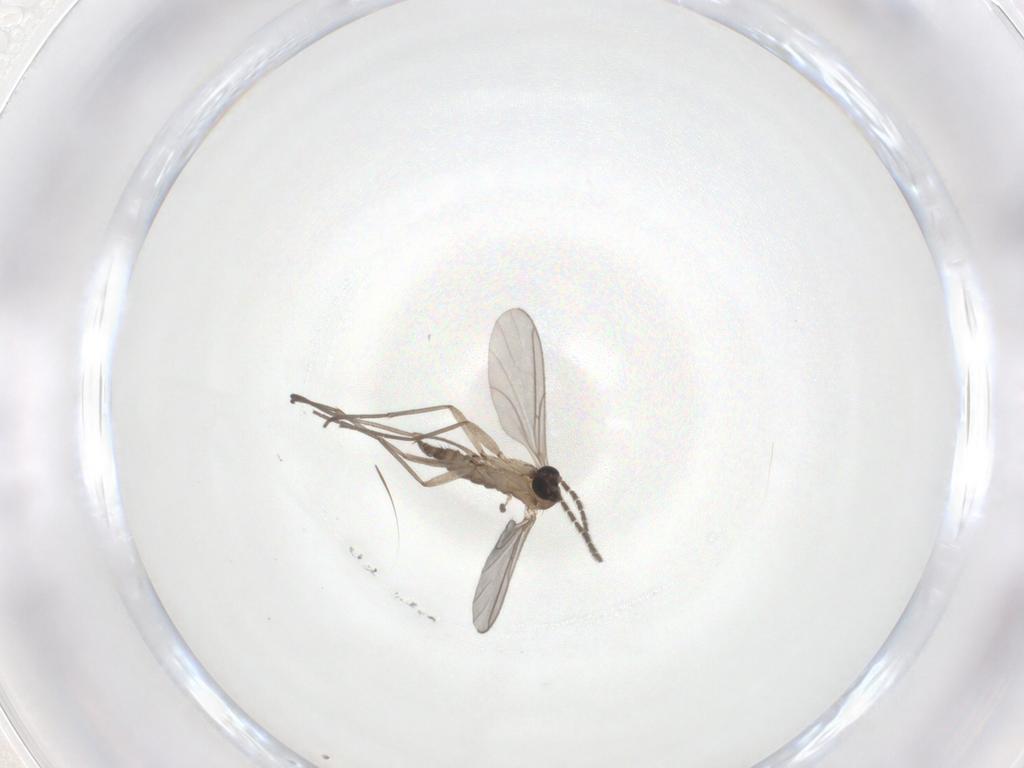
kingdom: Animalia
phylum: Arthropoda
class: Insecta
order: Diptera
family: Sciaridae
